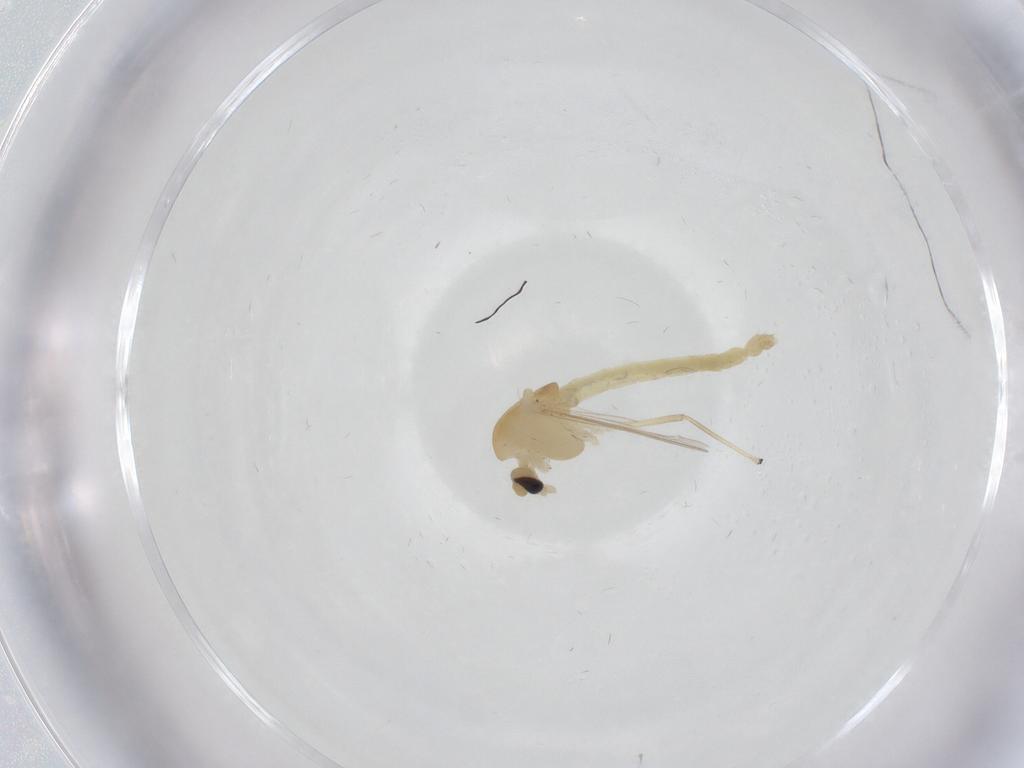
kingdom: Animalia
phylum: Arthropoda
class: Insecta
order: Diptera
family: Chironomidae
